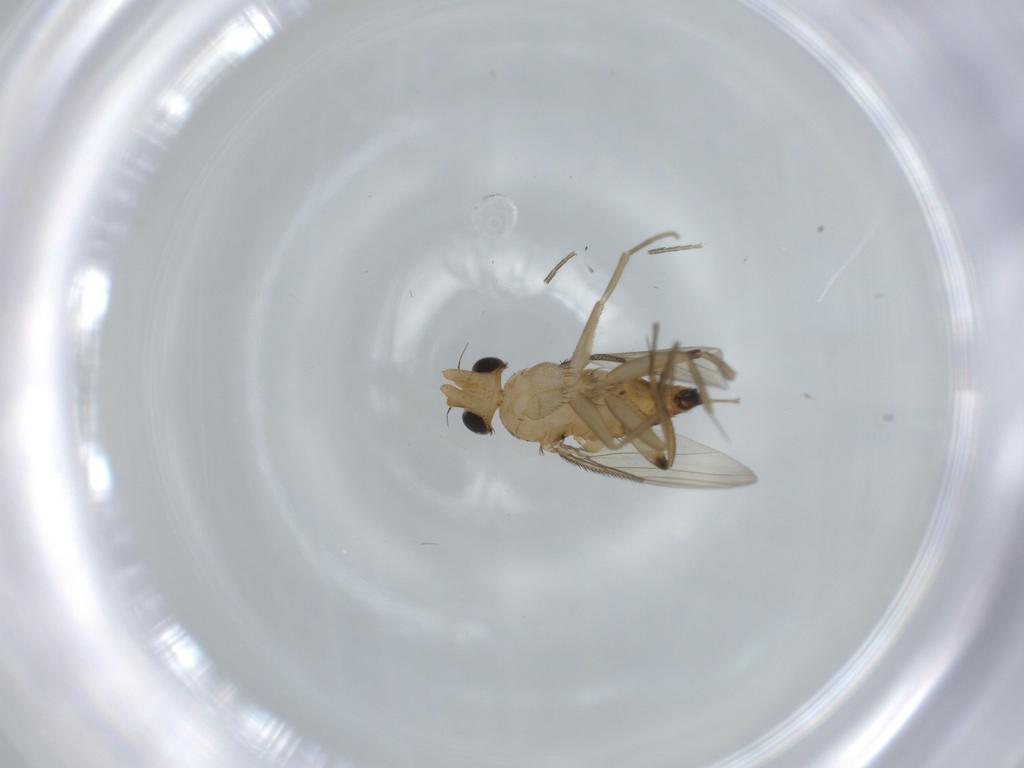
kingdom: Animalia
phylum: Arthropoda
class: Insecta
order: Diptera
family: Phoridae
